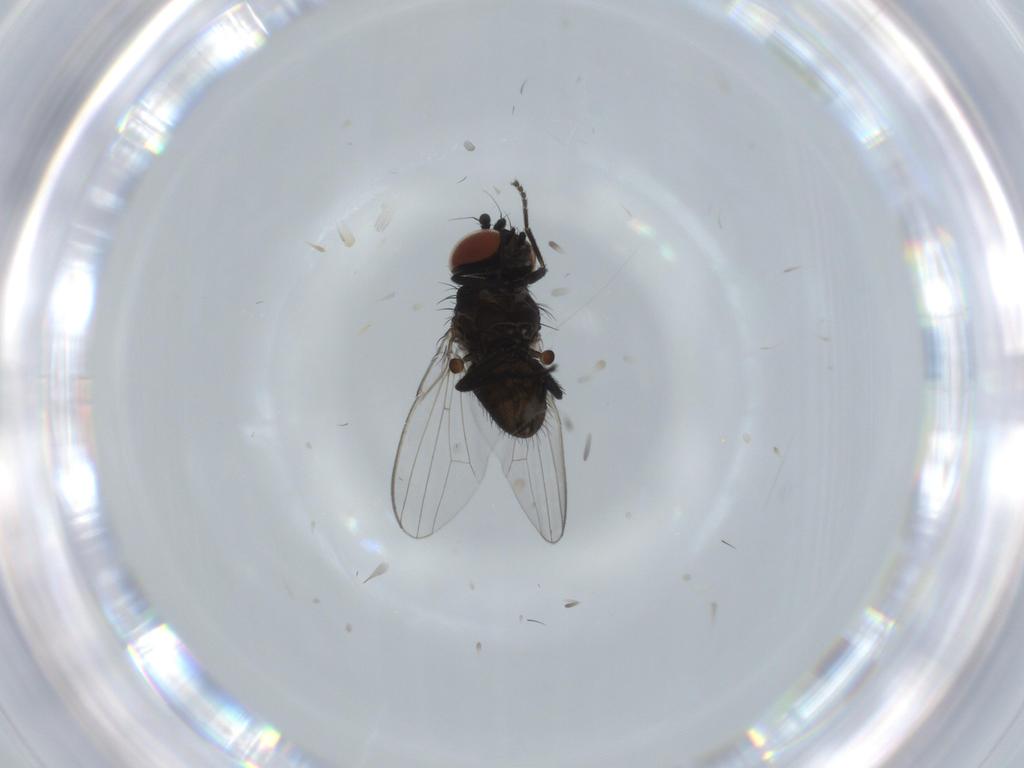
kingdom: Animalia
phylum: Arthropoda
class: Insecta
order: Diptera
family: Milichiidae
